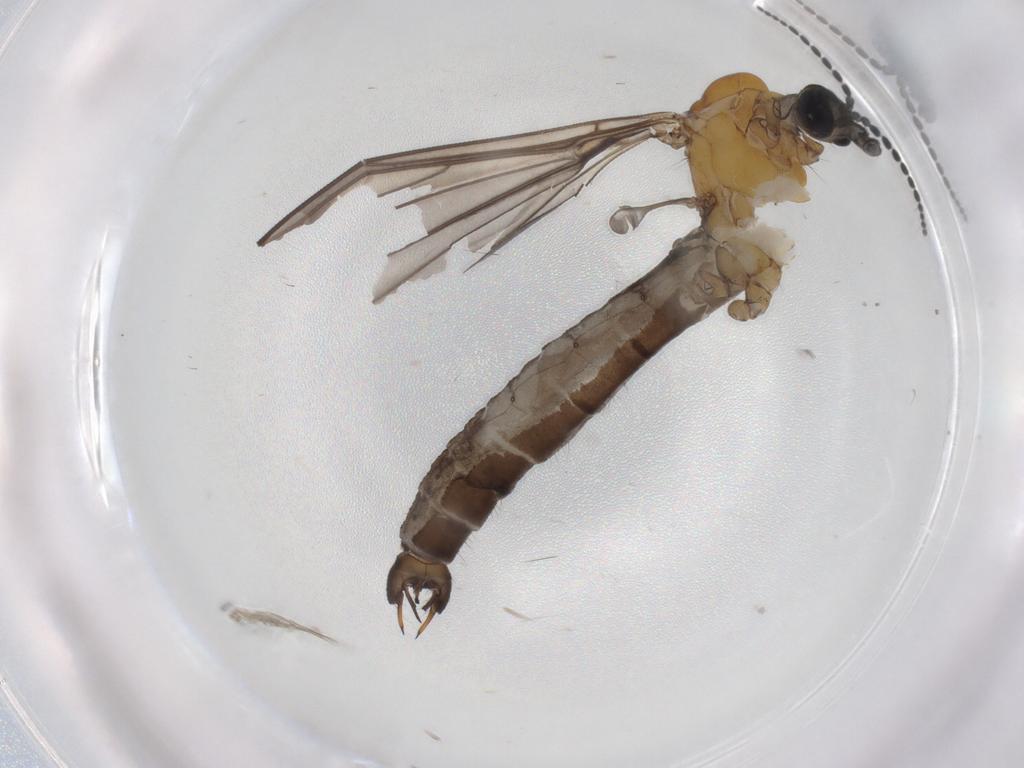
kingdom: Animalia
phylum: Arthropoda
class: Insecta
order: Diptera
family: Ceratopogonidae
